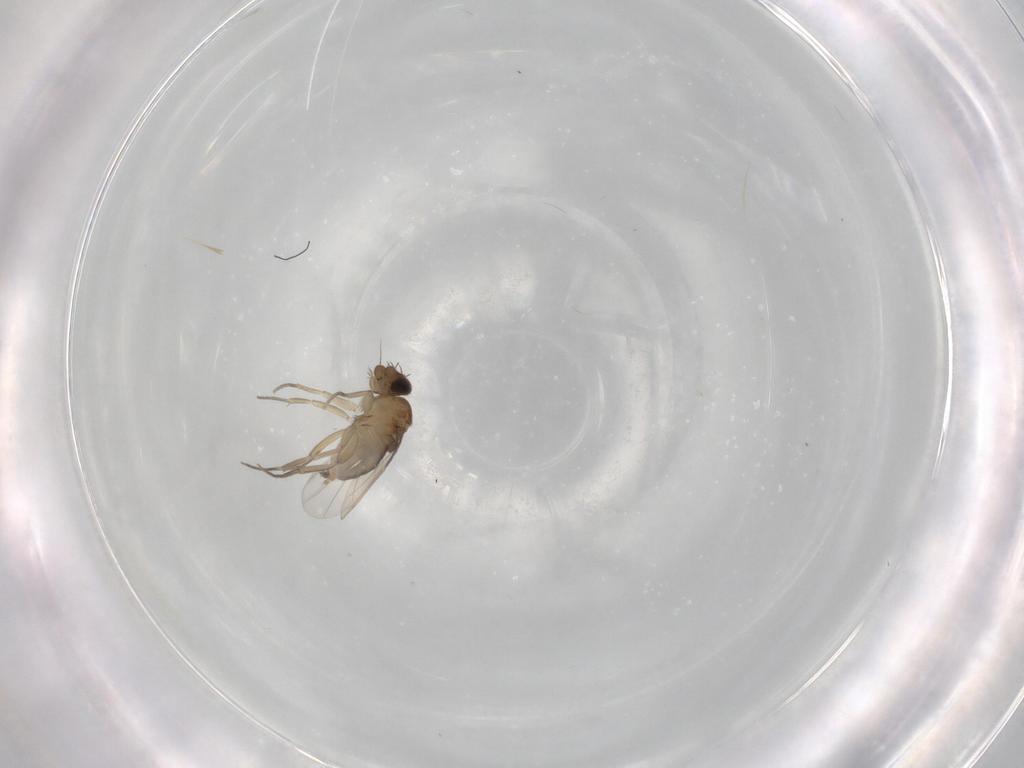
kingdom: Animalia
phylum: Arthropoda
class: Insecta
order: Diptera
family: Phoridae
